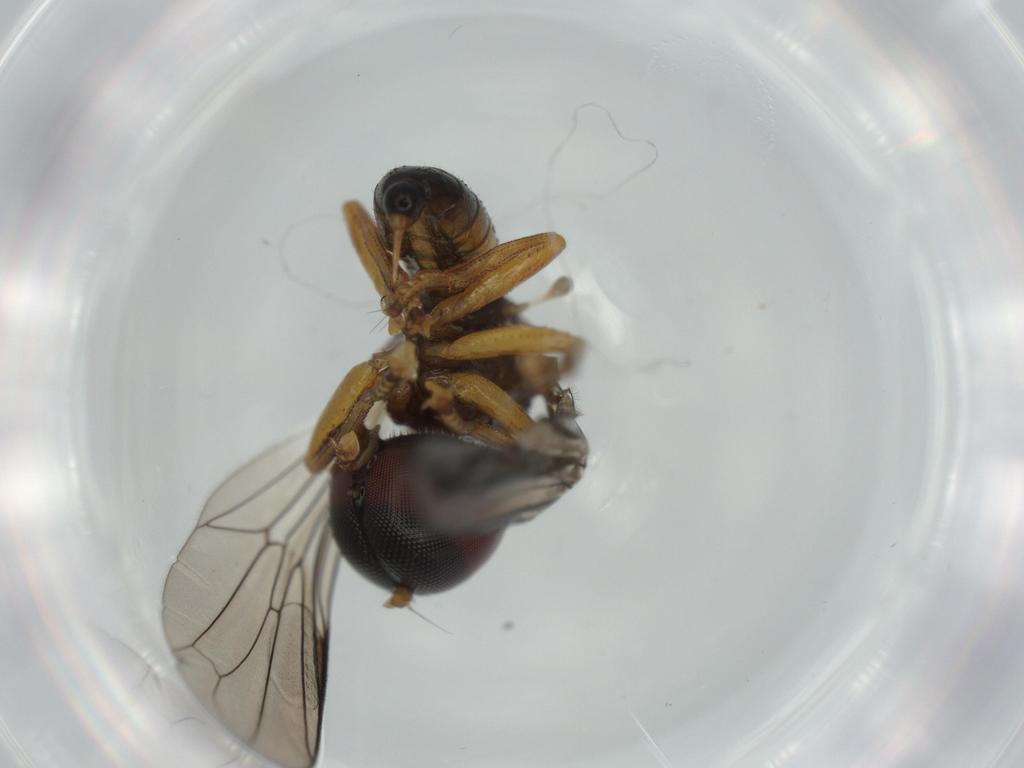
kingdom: Animalia
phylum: Arthropoda
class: Insecta
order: Diptera
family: Pipunculidae
